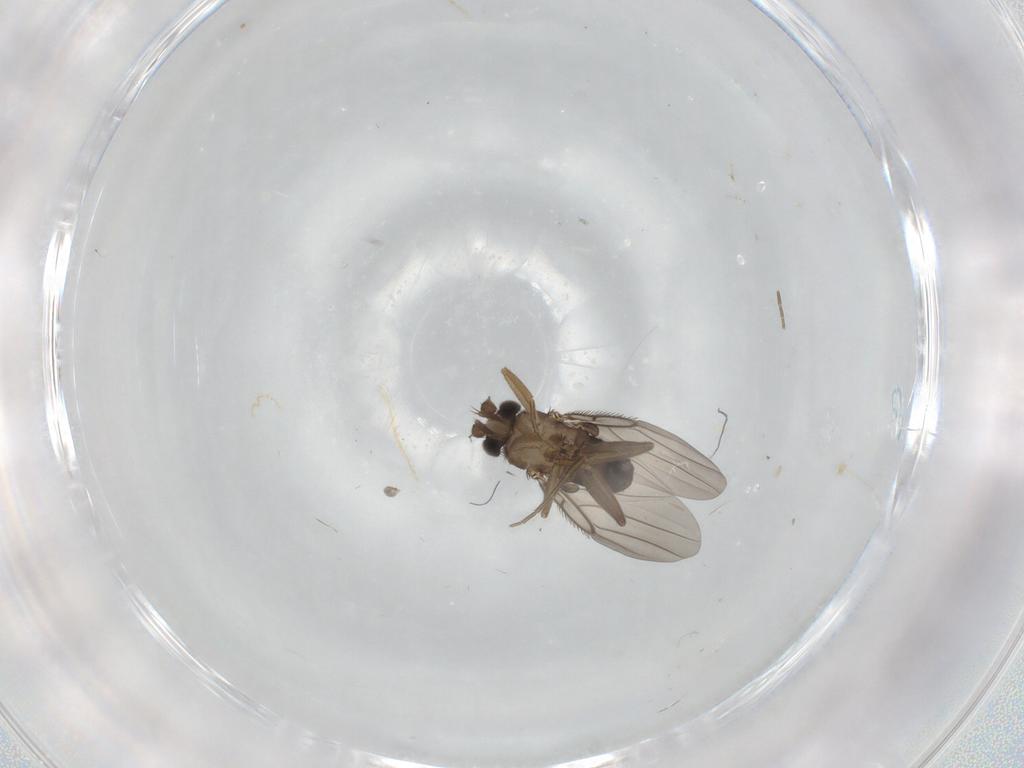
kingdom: Animalia
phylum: Arthropoda
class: Insecta
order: Diptera
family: Phoridae
